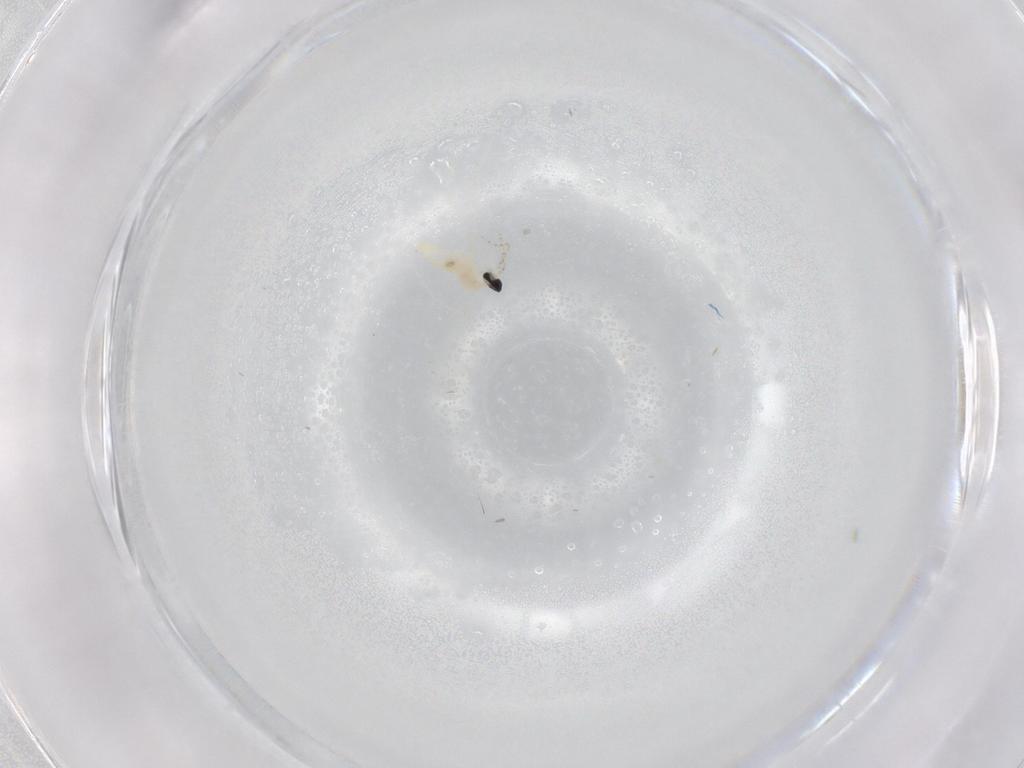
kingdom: Animalia
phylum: Arthropoda
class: Insecta
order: Diptera
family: Cecidomyiidae
